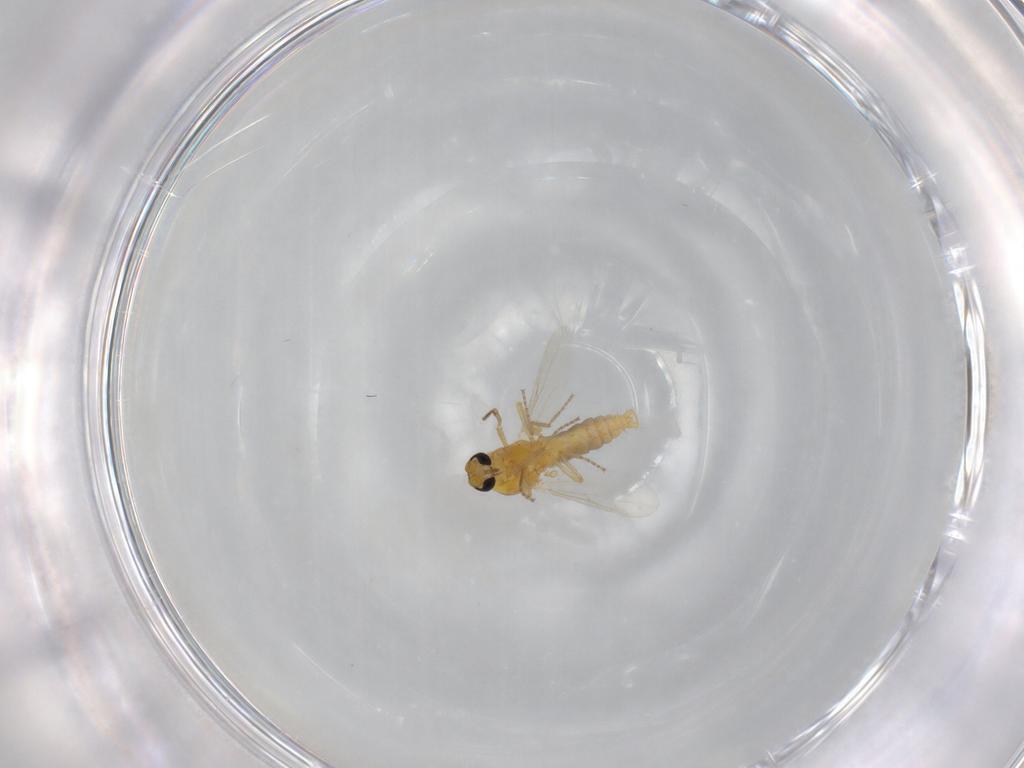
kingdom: Animalia
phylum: Arthropoda
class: Insecta
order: Diptera
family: Ceratopogonidae
